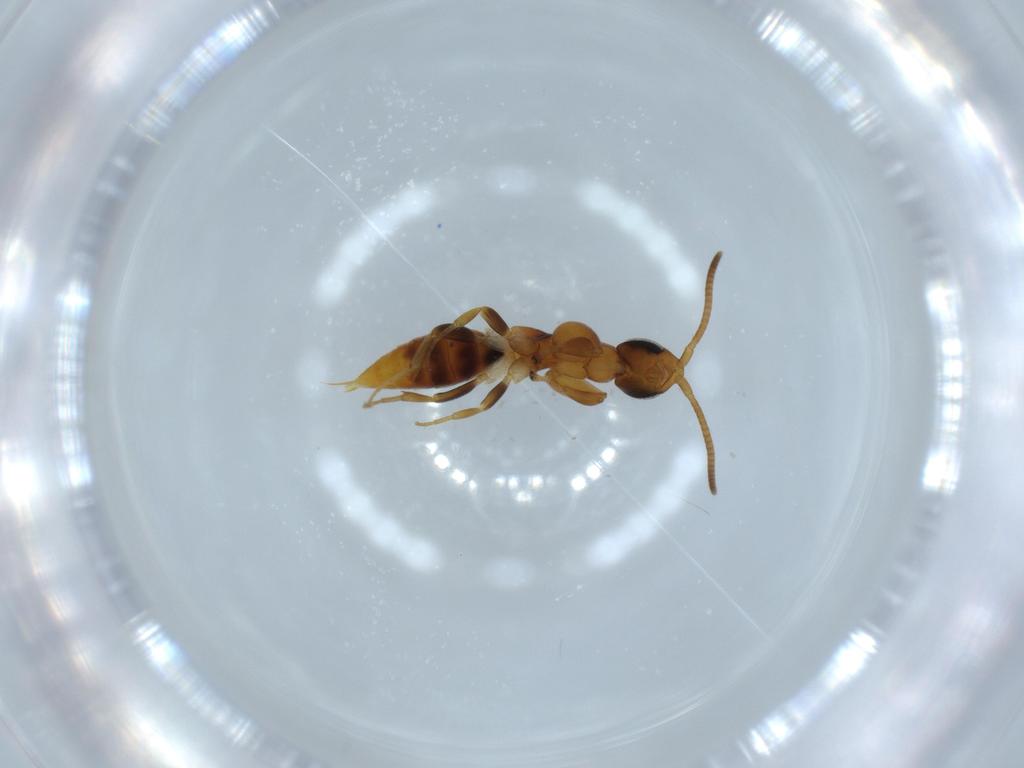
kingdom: Animalia
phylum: Arthropoda
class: Insecta
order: Hymenoptera
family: Sclerogibbidae
